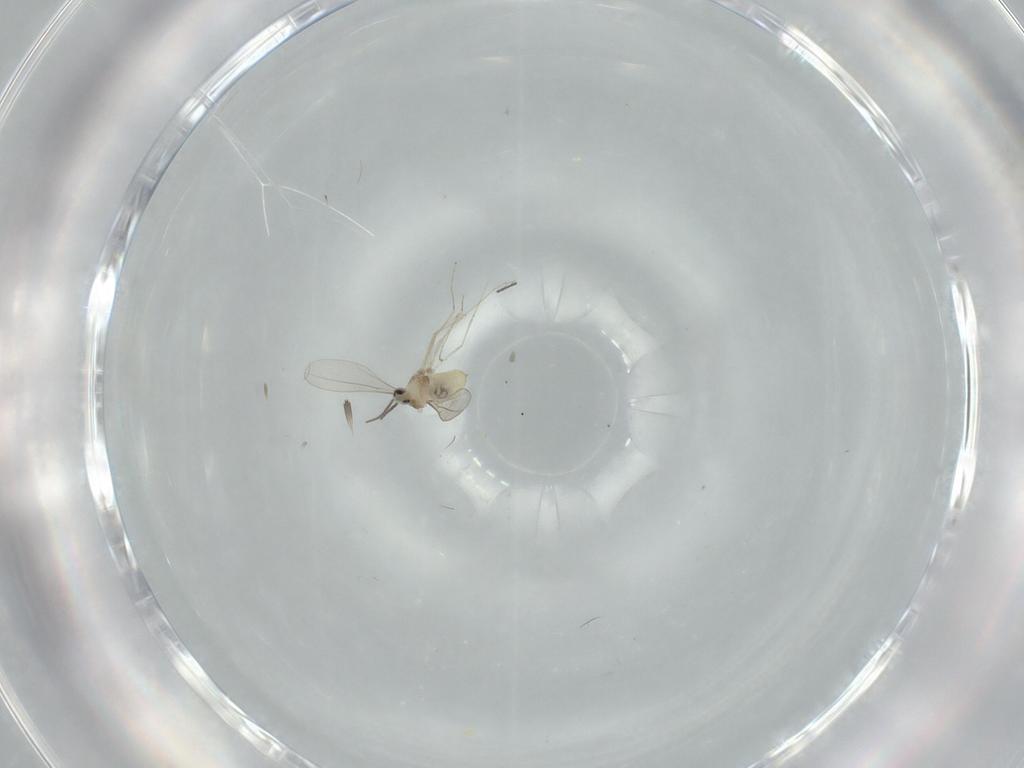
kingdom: Animalia
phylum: Arthropoda
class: Insecta
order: Diptera
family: Cecidomyiidae
